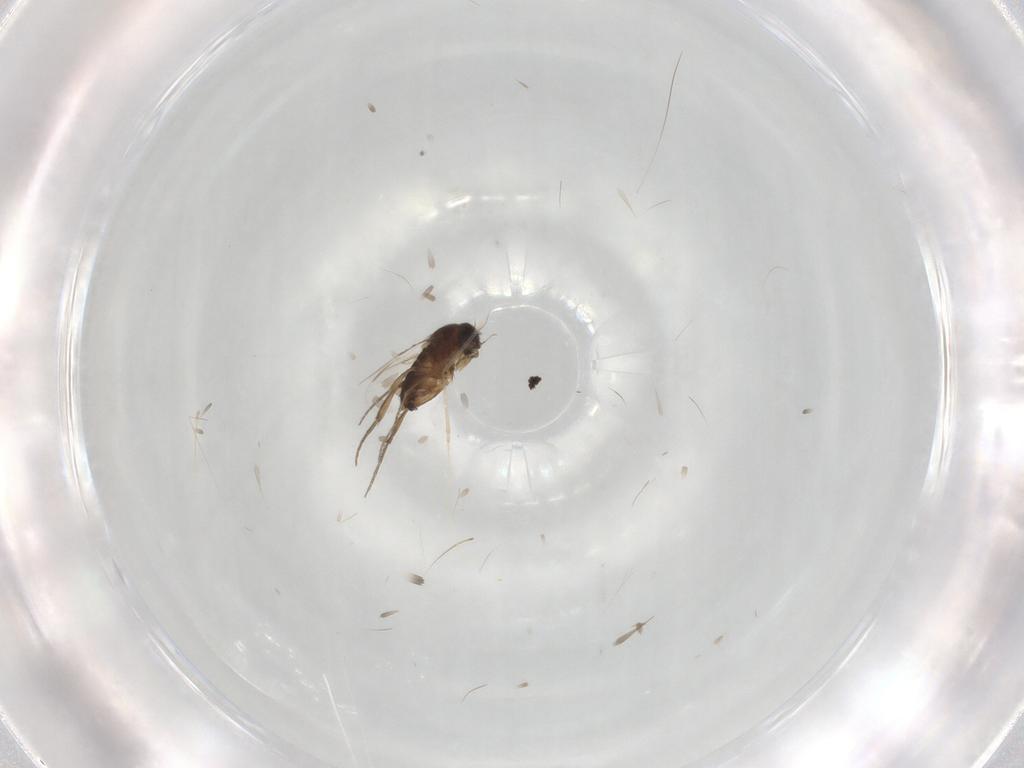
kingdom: Animalia
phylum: Arthropoda
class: Insecta
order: Diptera
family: Phoridae
